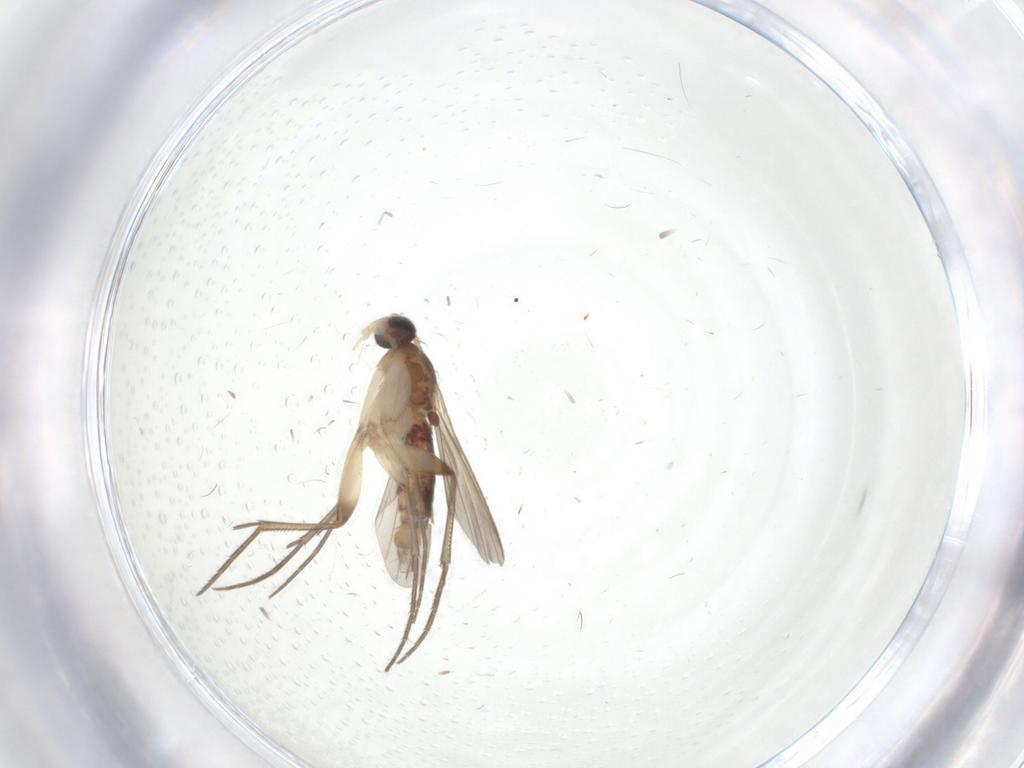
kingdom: Animalia
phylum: Arthropoda
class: Insecta
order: Diptera
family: Mycetophilidae
